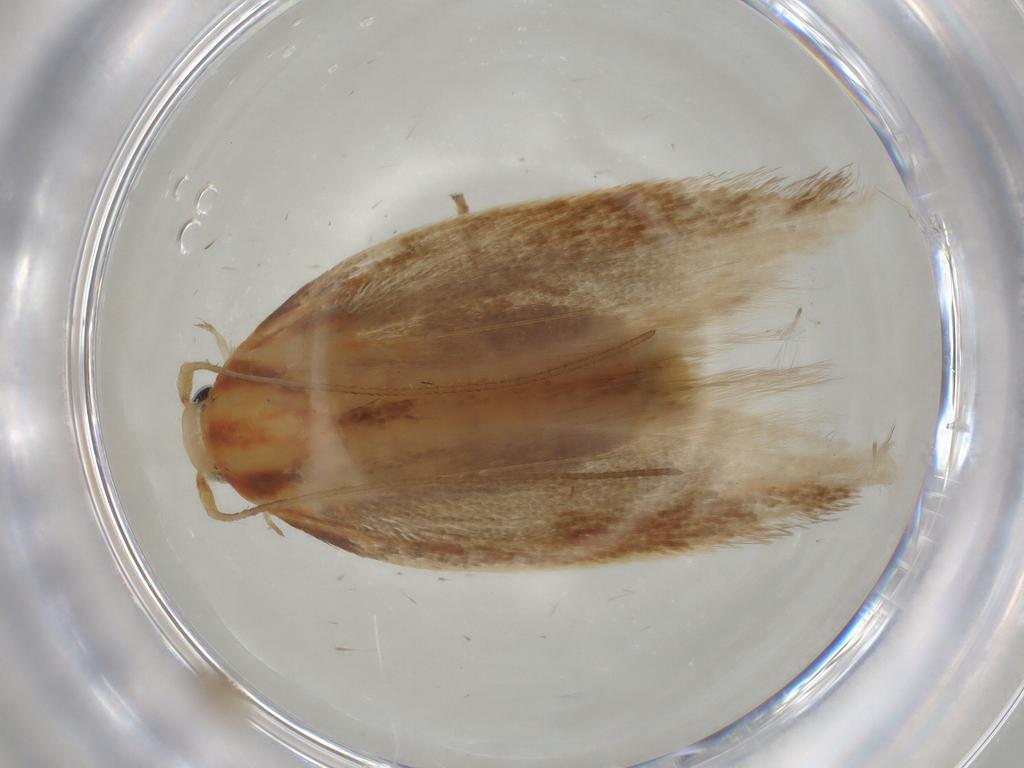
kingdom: Animalia
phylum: Arthropoda
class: Insecta
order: Lepidoptera
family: Geometridae
